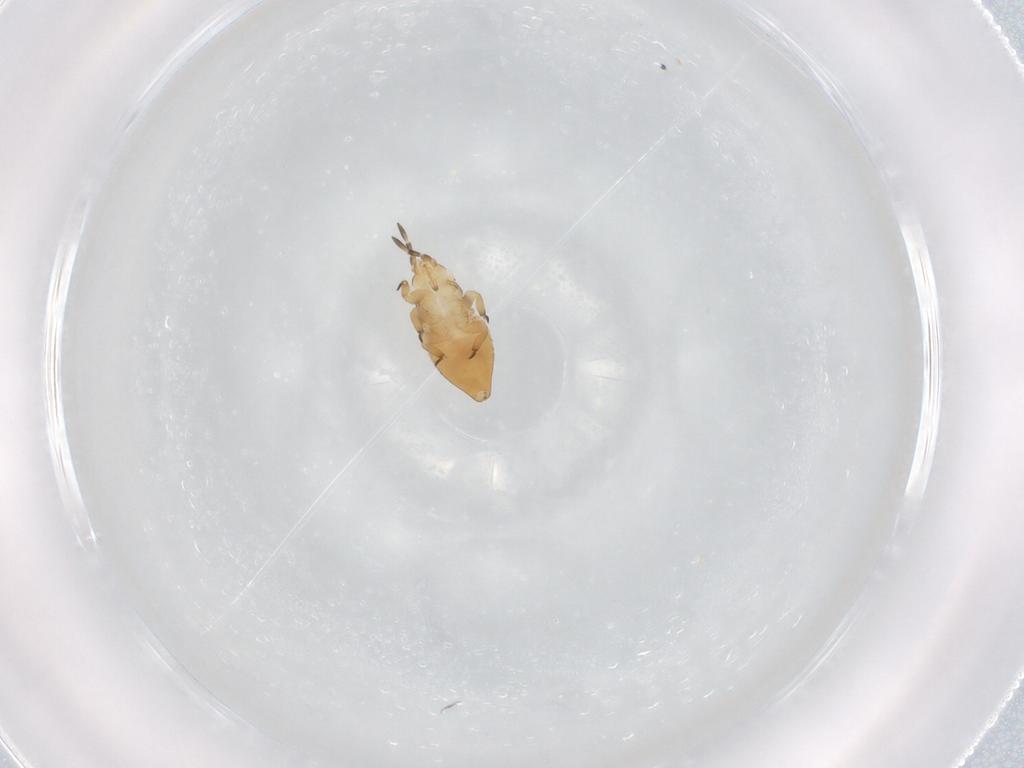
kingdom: Animalia
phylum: Arthropoda
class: Insecta
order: Hemiptera
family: Thaumastocoridae
